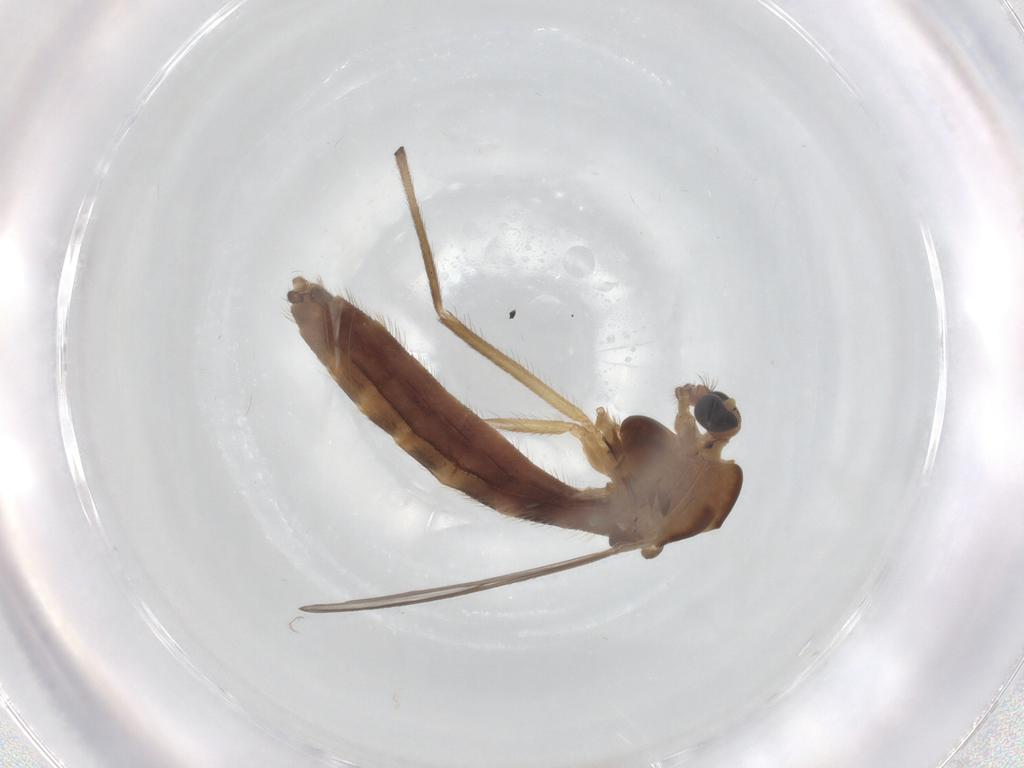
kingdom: Animalia
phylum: Arthropoda
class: Insecta
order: Diptera
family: Chironomidae
